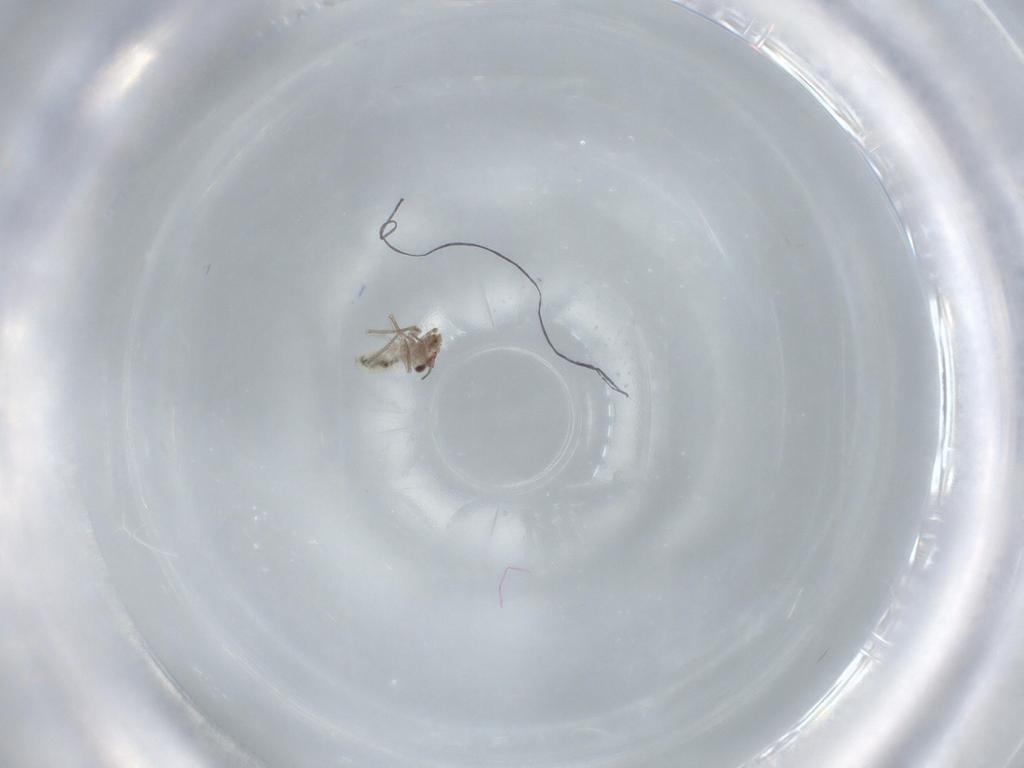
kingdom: Animalia
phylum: Arthropoda
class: Insecta
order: Psocodea
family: Lepidopsocidae
